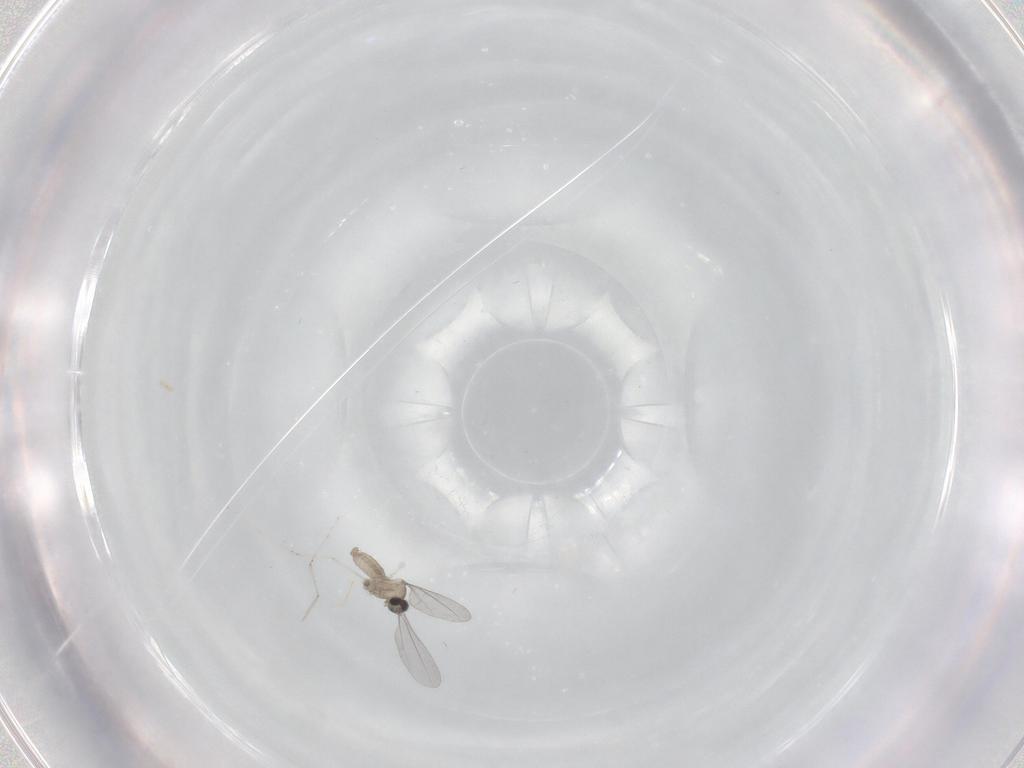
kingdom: Animalia
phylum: Arthropoda
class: Insecta
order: Diptera
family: Cecidomyiidae
